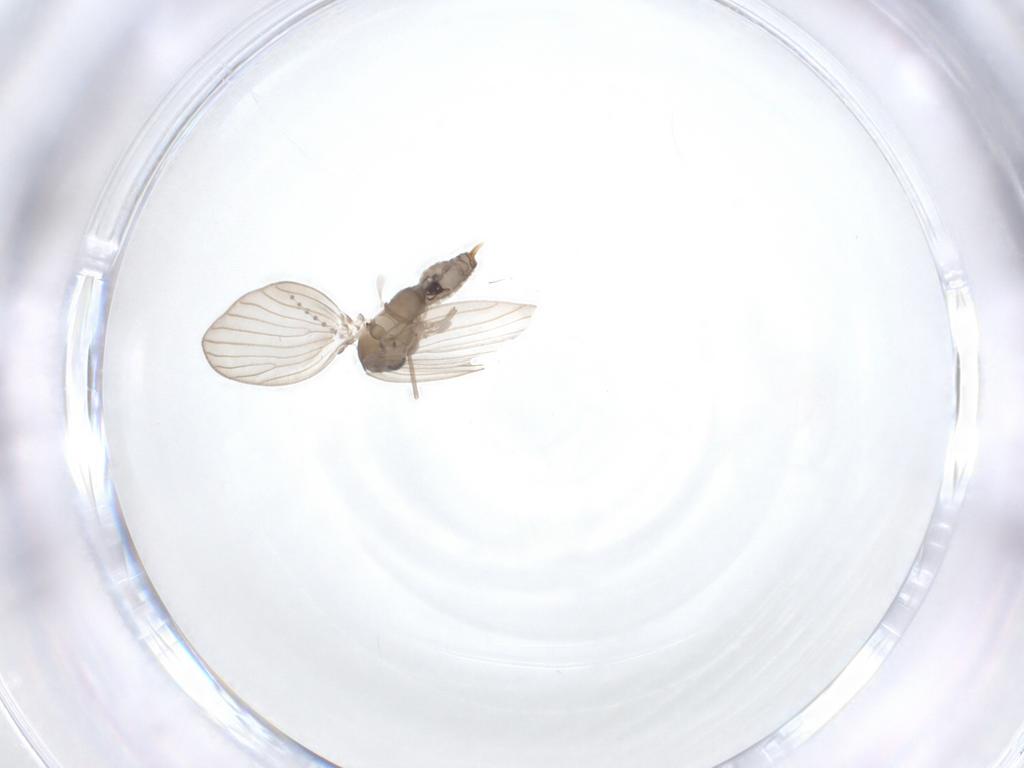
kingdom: Animalia
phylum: Arthropoda
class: Insecta
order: Diptera
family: Psychodidae
